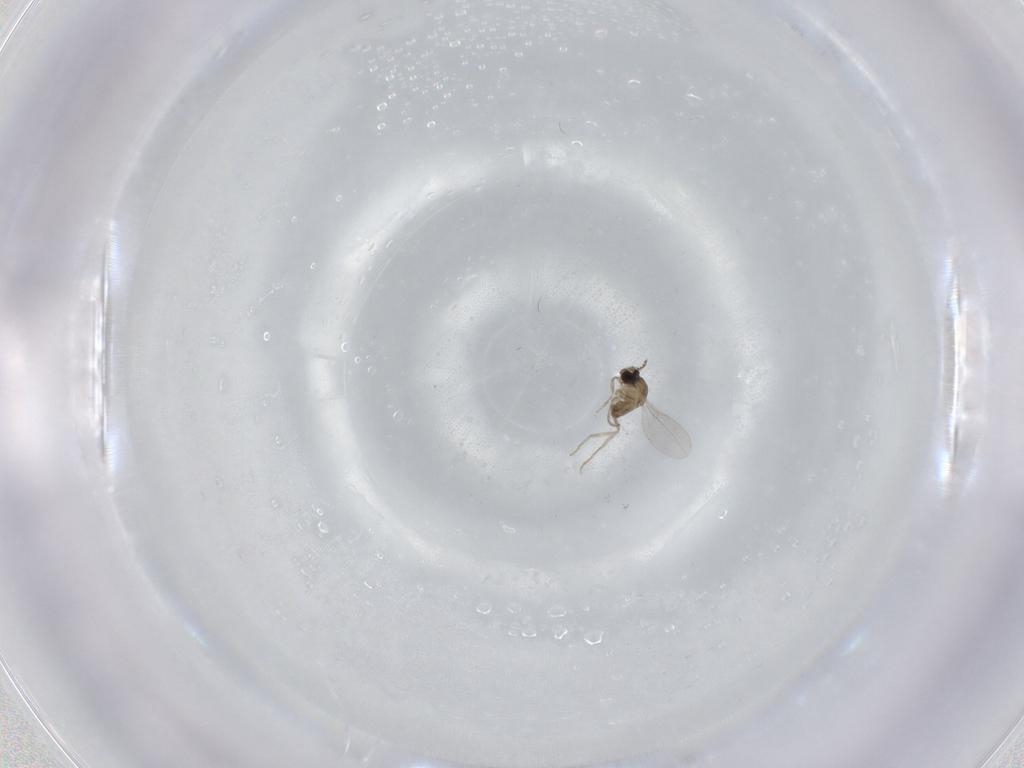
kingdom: Animalia
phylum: Arthropoda
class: Insecta
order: Diptera
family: Cecidomyiidae
